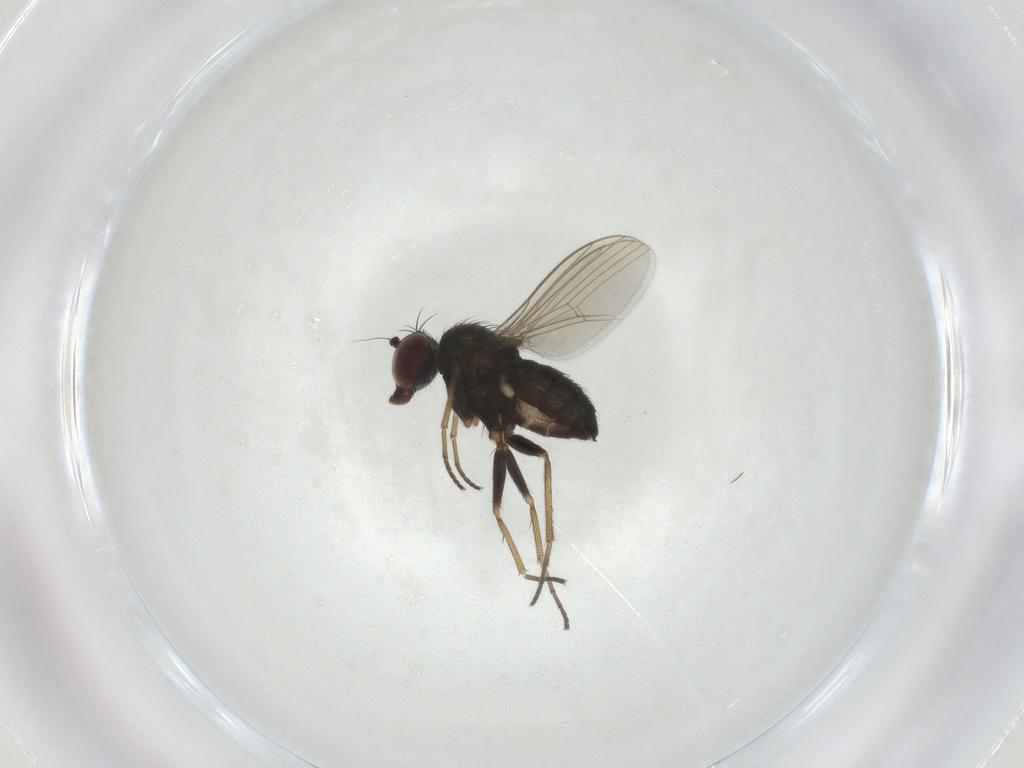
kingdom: Animalia
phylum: Arthropoda
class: Insecta
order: Diptera
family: Dolichopodidae
